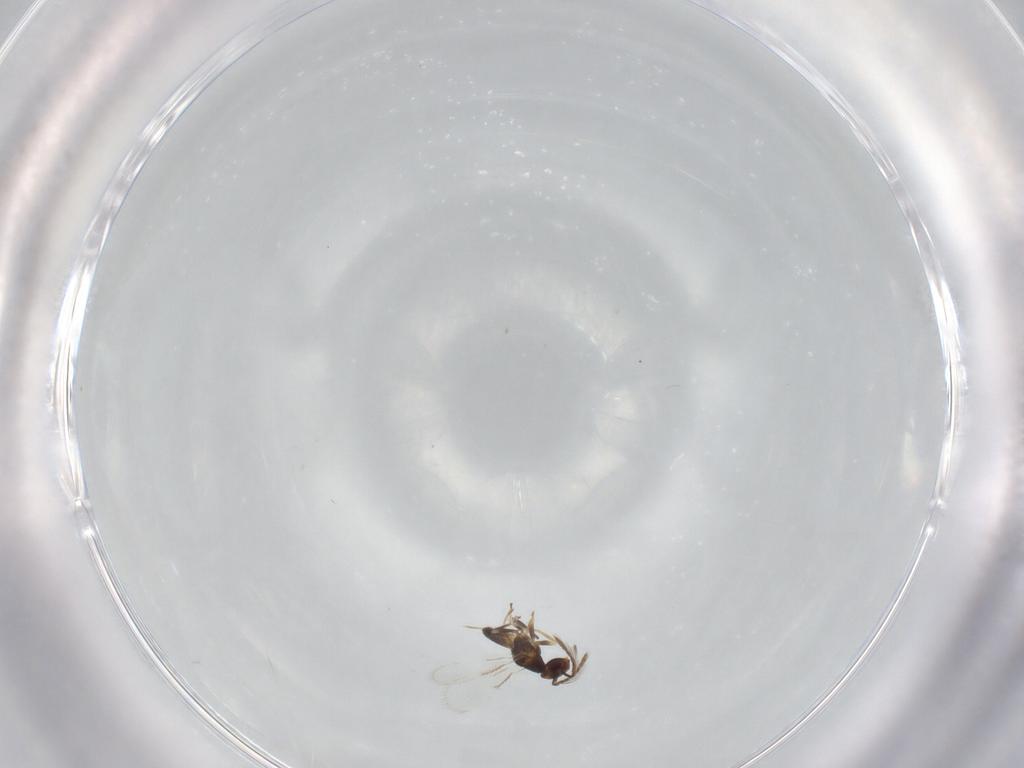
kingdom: Animalia
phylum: Arthropoda
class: Insecta
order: Hymenoptera
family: Eulophidae
